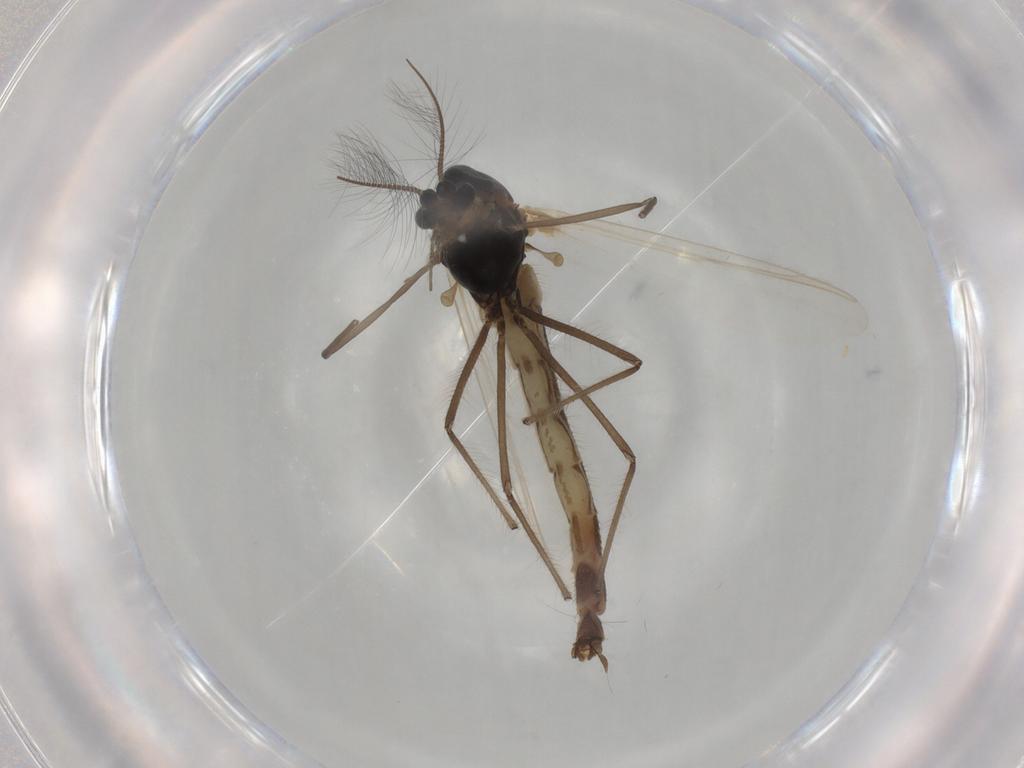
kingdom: Animalia
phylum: Arthropoda
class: Insecta
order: Diptera
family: Chironomidae
